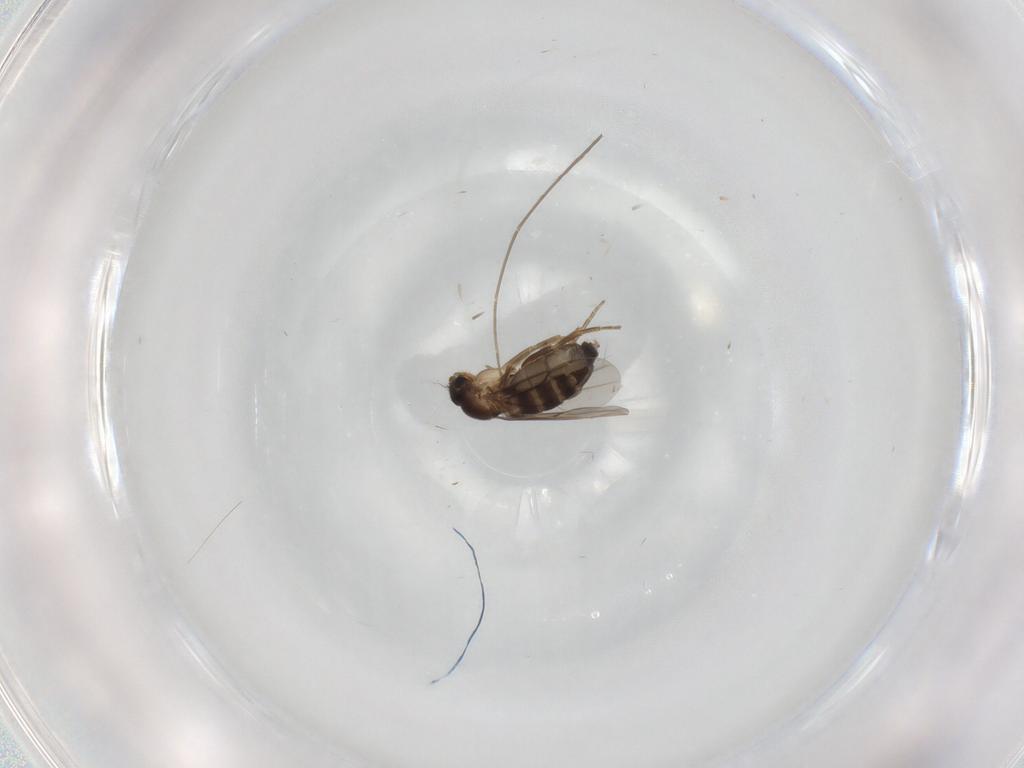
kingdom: Animalia
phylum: Arthropoda
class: Insecta
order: Diptera
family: Chironomidae
